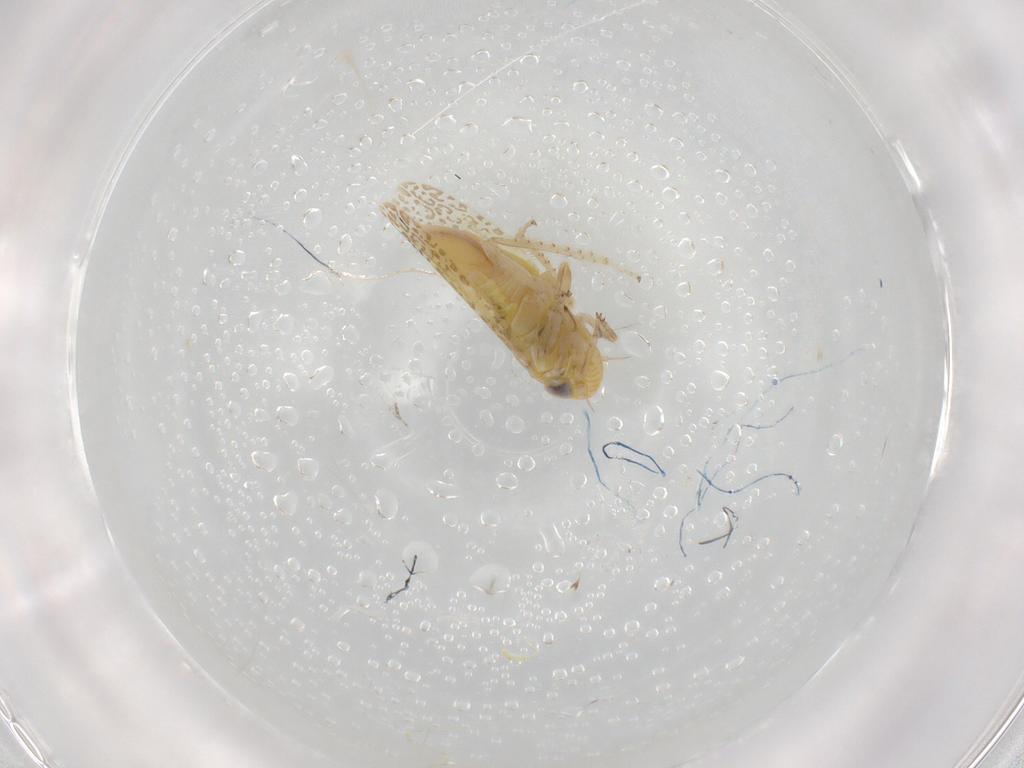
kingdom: Animalia
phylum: Arthropoda
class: Insecta
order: Hemiptera
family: Cicadellidae
